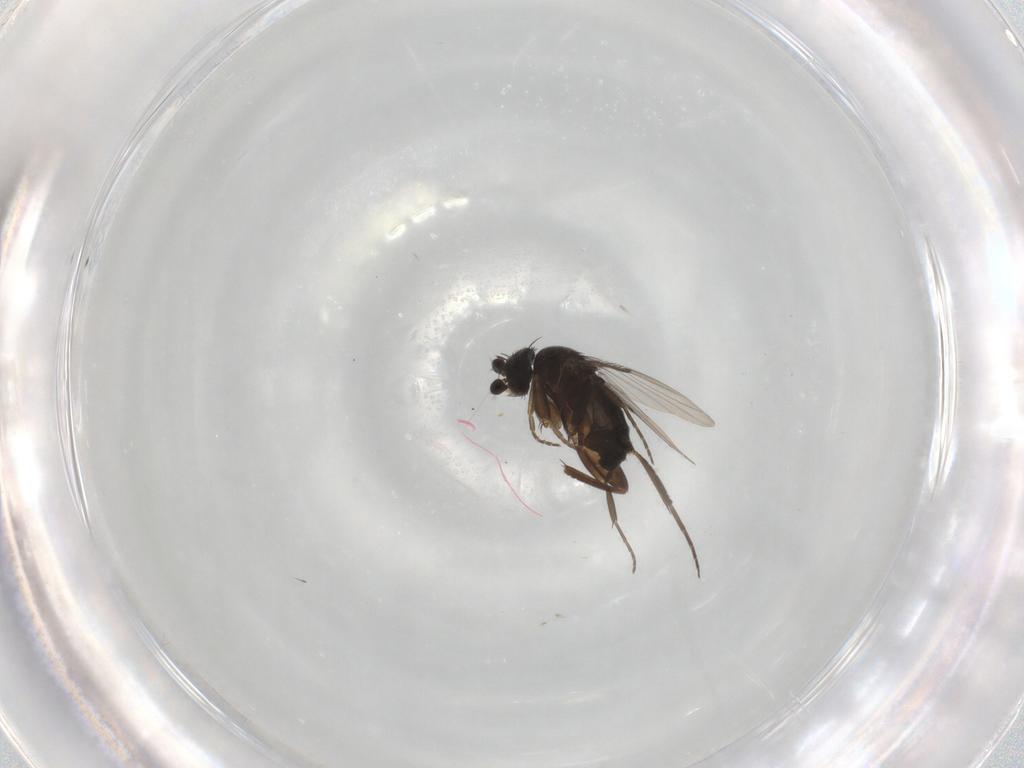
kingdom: Animalia
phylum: Arthropoda
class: Insecta
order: Diptera
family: Phoridae
